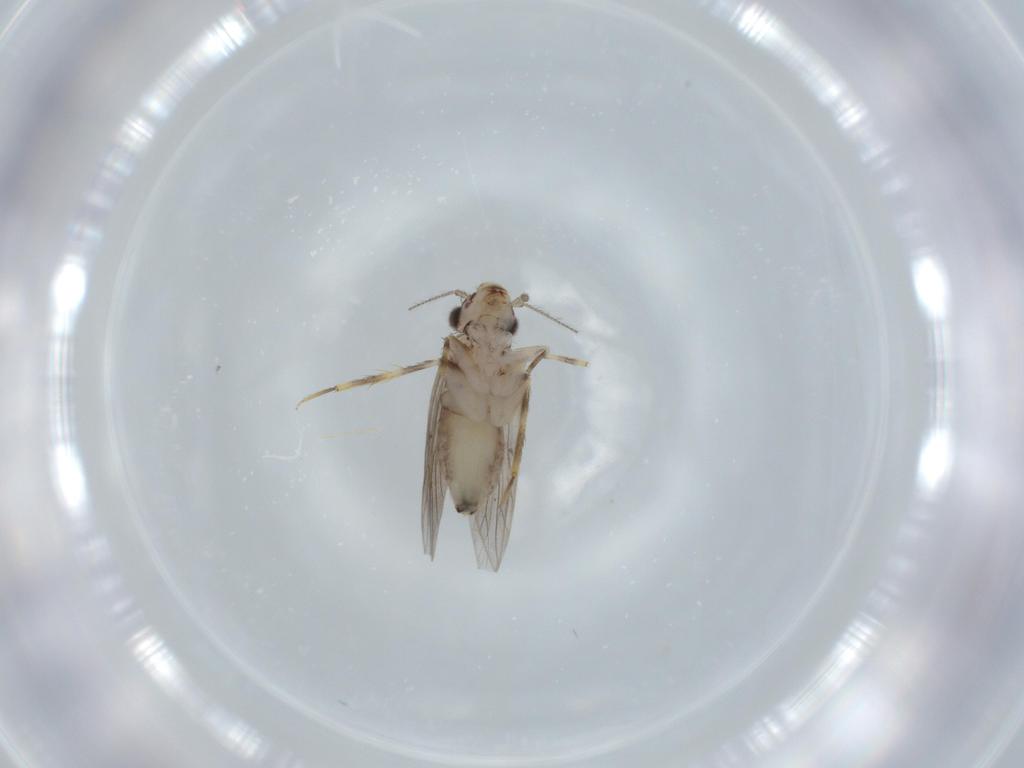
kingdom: Animalia
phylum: Arthropoda
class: Insecta
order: Psocodea
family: Lepidopsocidae
